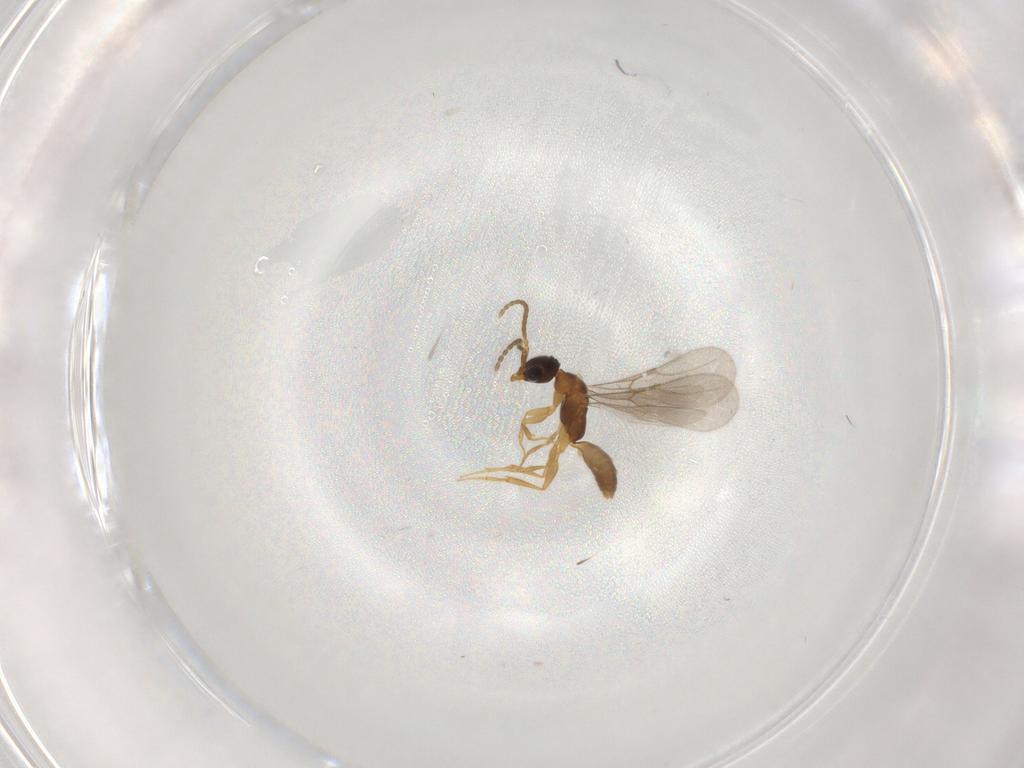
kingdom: Animalia
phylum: Arthropoda
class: Insecta
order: Hymenoptera
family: Bethylidae
